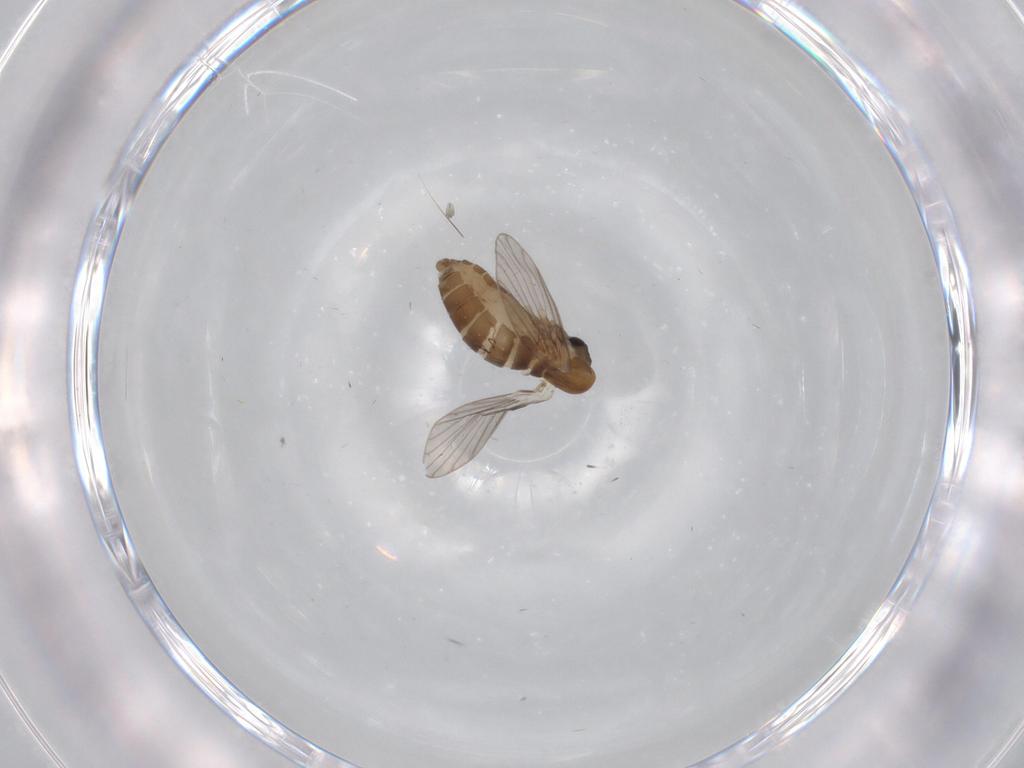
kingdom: Animalia
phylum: Arthropoda
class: Insecta
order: Diptera
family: Psychodidae
